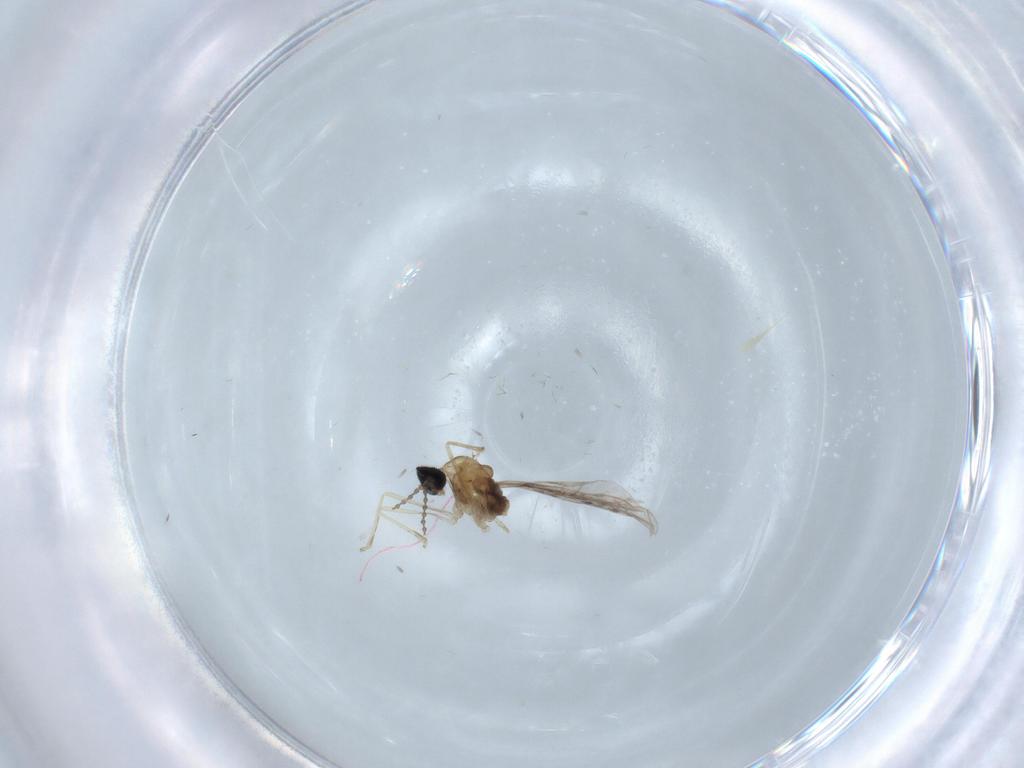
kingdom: Animalia
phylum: Arthropoda
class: Insecta
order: Diptera
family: Cecidomyiidae
